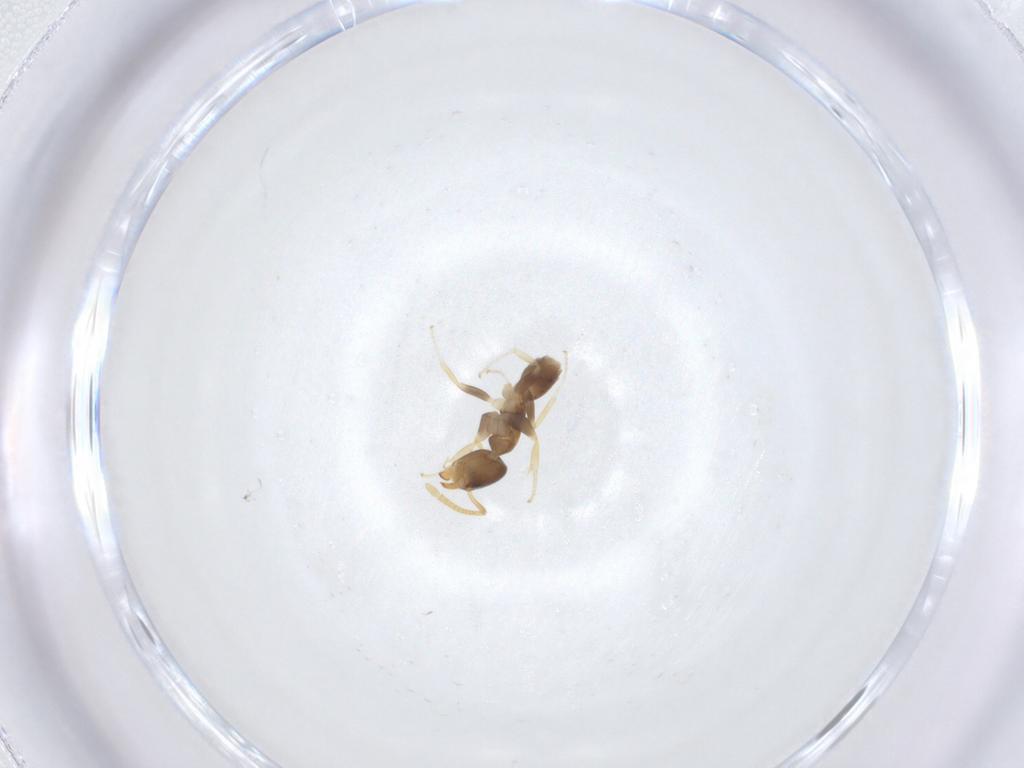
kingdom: Animalia
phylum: Arthropoda
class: Insecta
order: Hymenoptera
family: Formicidae
